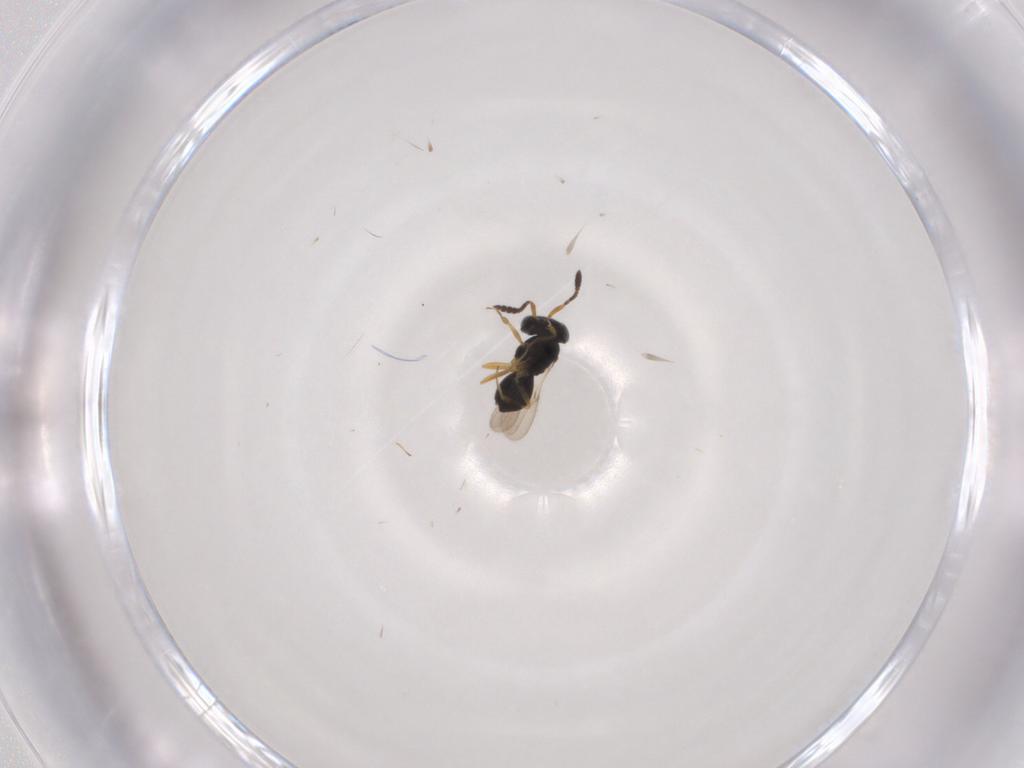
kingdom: Animalia
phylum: Arthropoda
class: Insecta
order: Hymenoptera
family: Scelionidae
